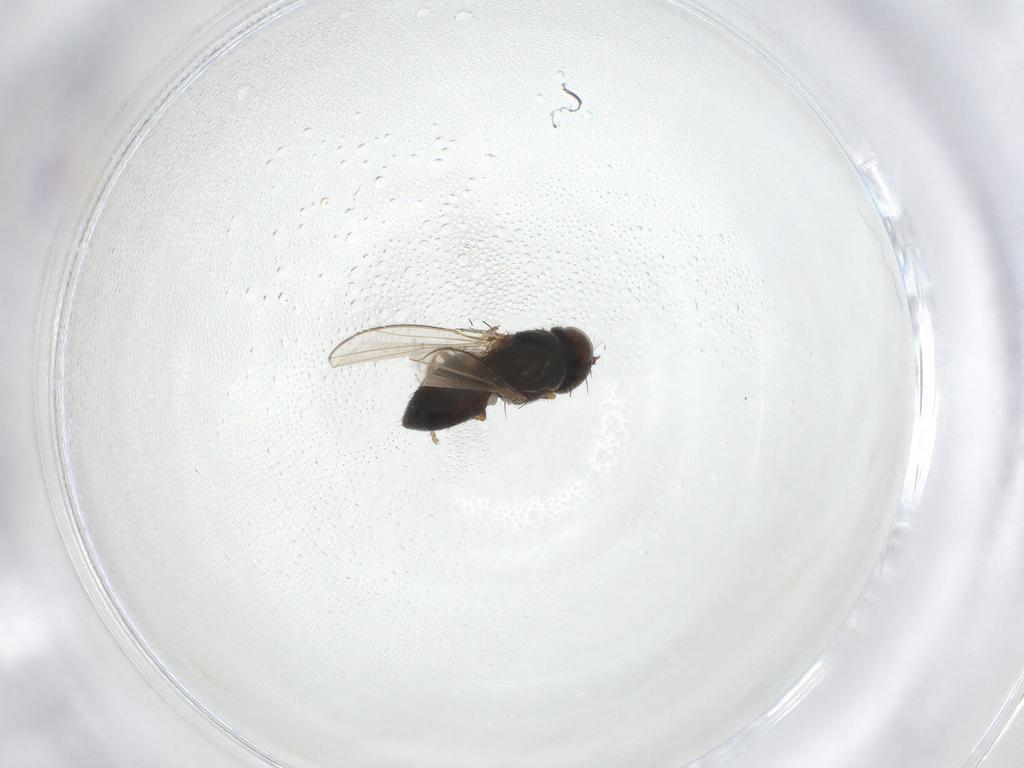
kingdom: Animalia
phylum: Arthropoda
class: Insecta
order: Diptera
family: Ephydridae
